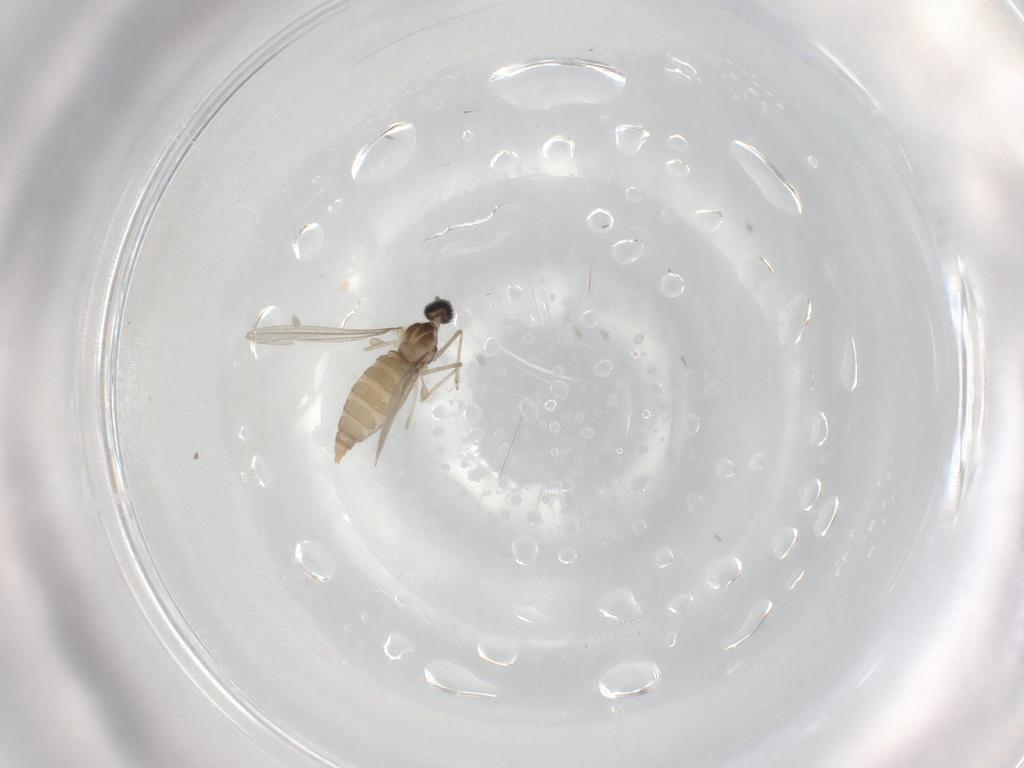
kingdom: Animalia
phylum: Arthropoda
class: Insecta
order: Diptera
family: Cecidomyiidae
